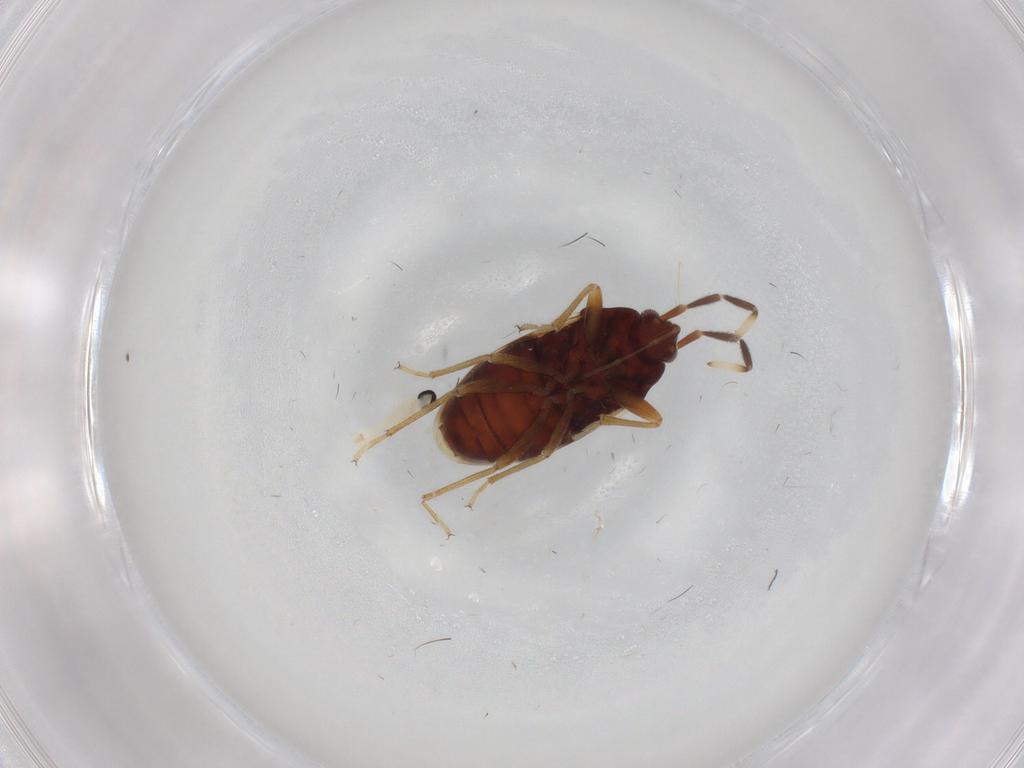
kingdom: Animalia
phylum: Arthropoda
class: Insecta
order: Hemiptera
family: Rhyparochromidae
